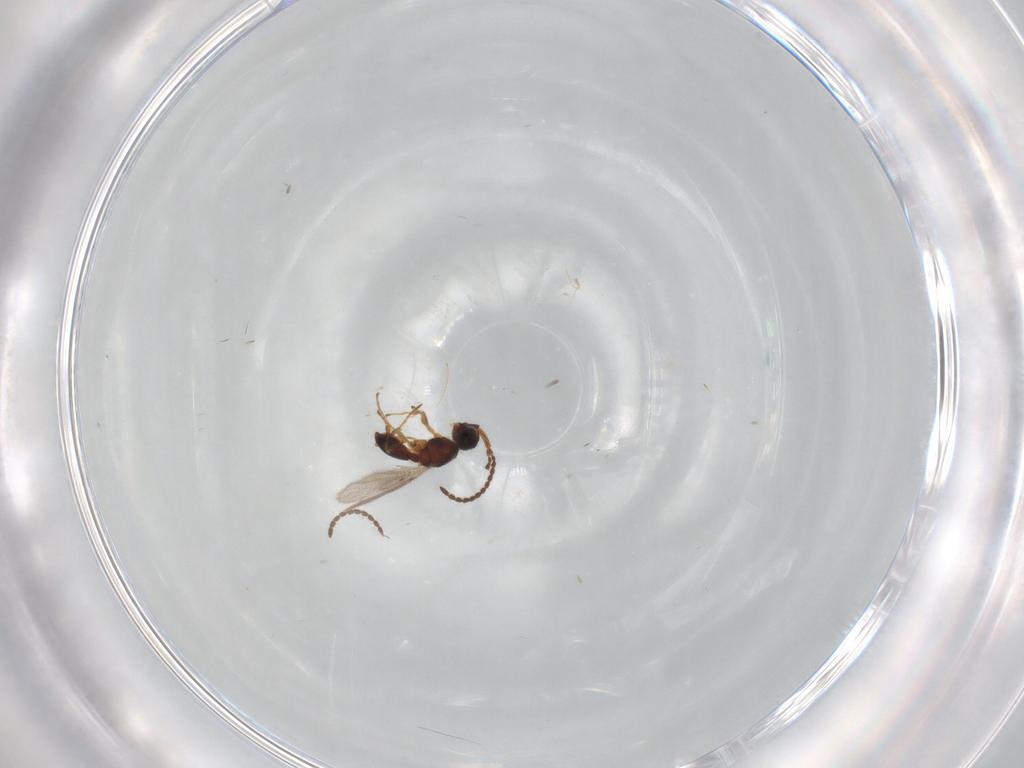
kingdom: Animalia
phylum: Arthropoda
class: Insecta
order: Hymenoptera
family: Diapriidae
